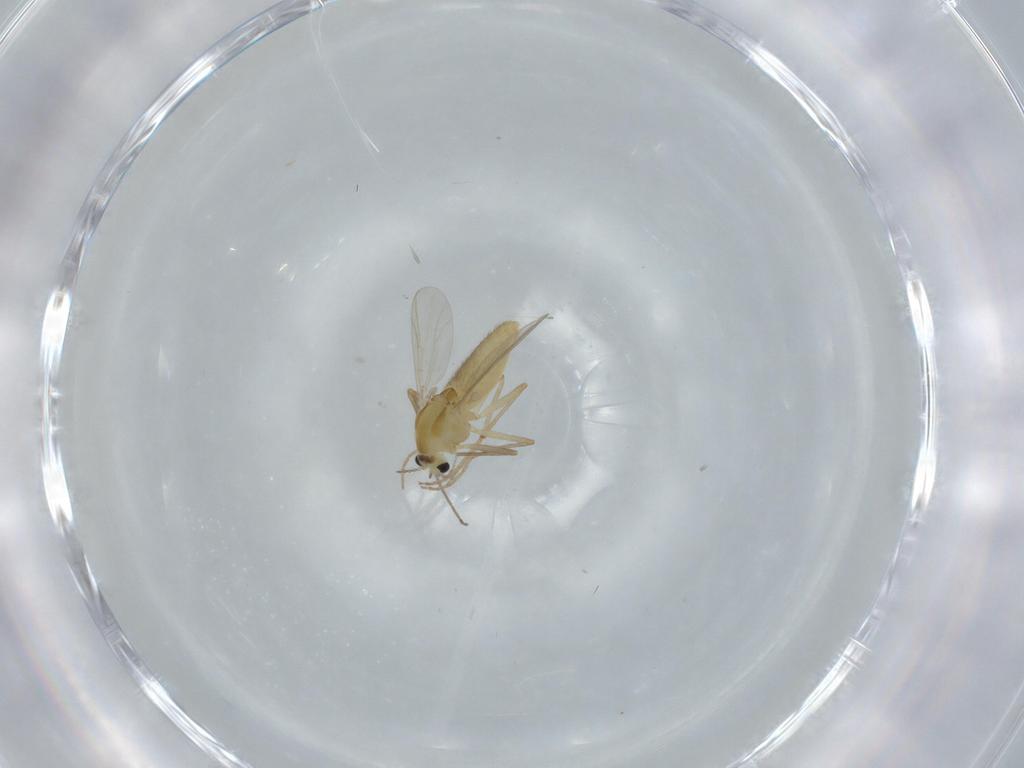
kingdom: Animalia
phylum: Arthropoda
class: Insecta
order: Diptera
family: Chironomidae
